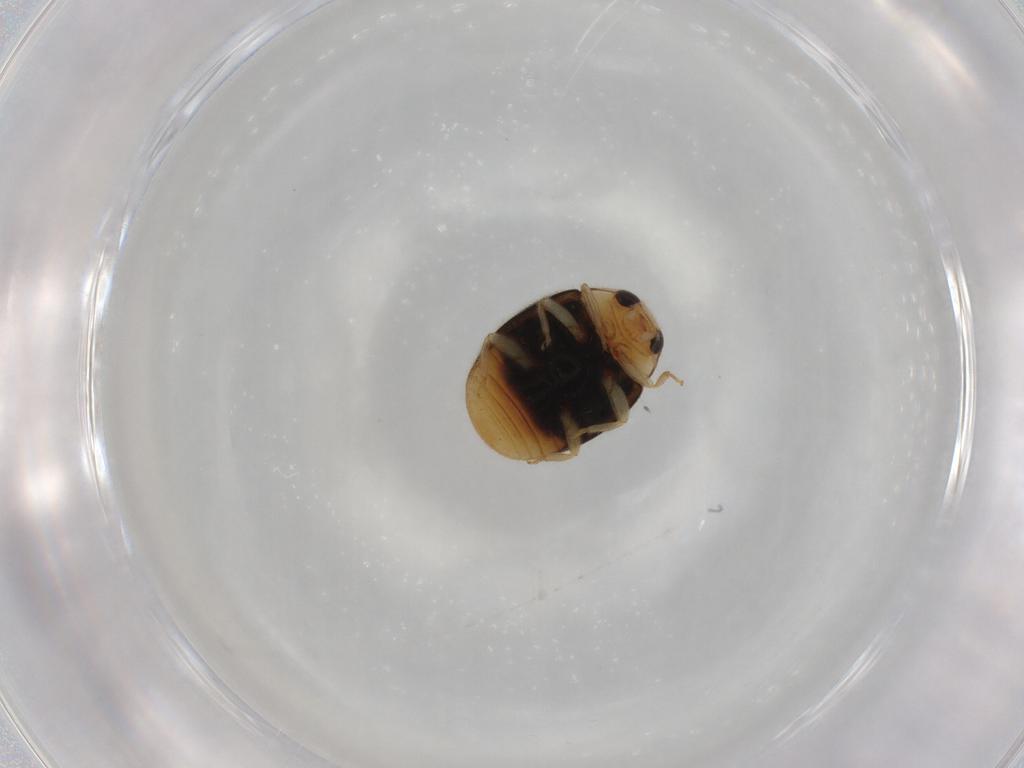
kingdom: Animalia
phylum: Arthropoda
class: Insecta
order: Coleoptera
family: Coccinellidae
